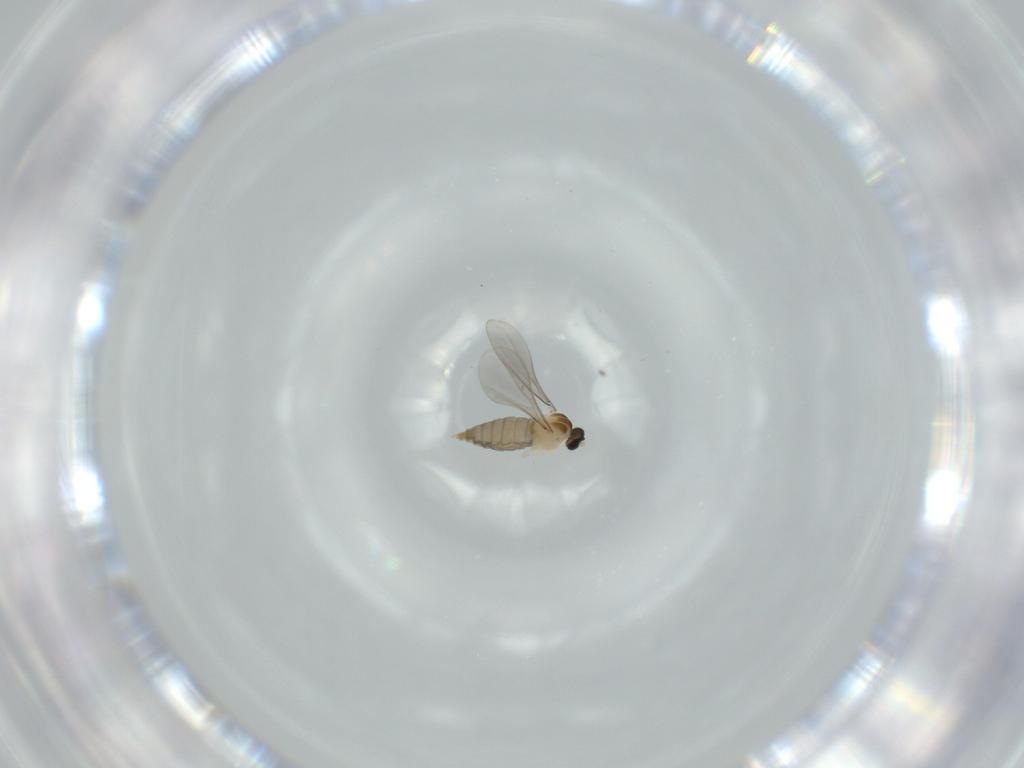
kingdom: Animalia
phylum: Arthropoda
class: Insecta
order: Diptera
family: Cecidomyiidae
